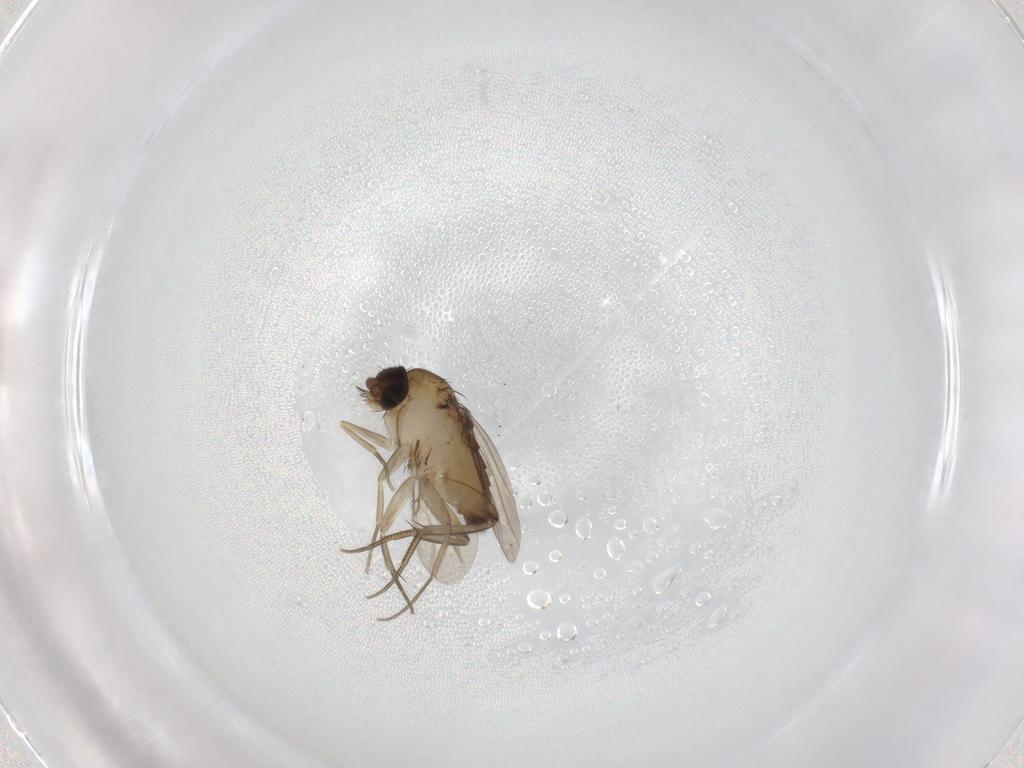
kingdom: Animalia
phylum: Arthropoda
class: Insecta
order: Diptera
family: Phoridae
